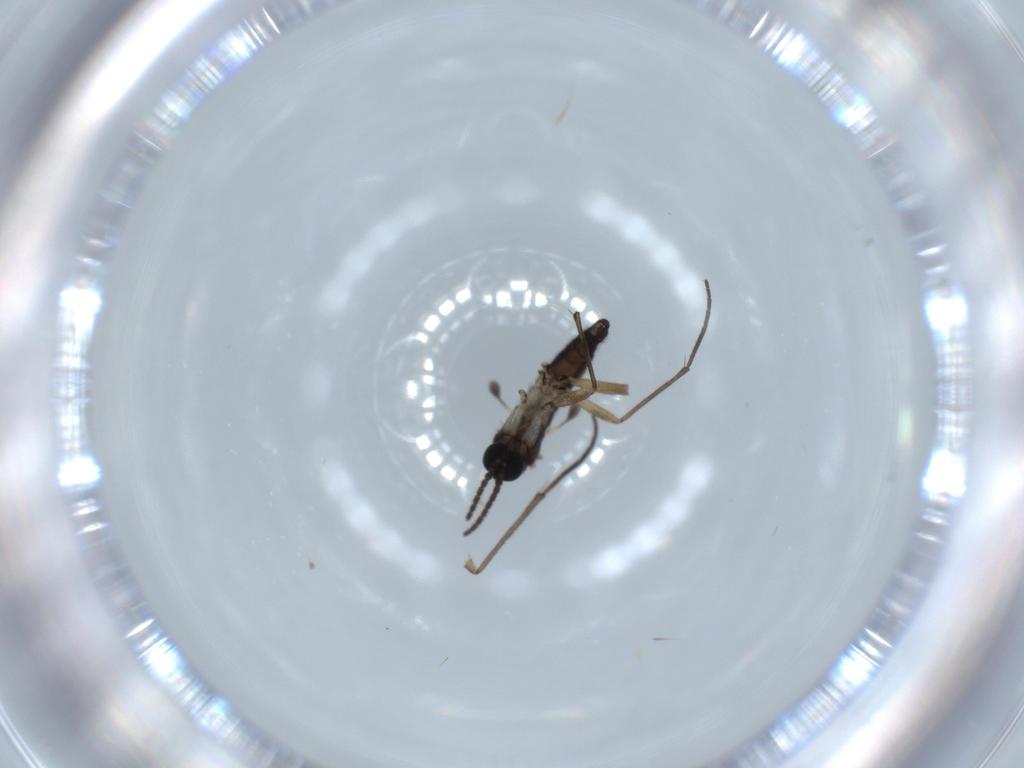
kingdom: Animalia
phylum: Arthropoda
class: Insecta
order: Diptera
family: Sciaridae
